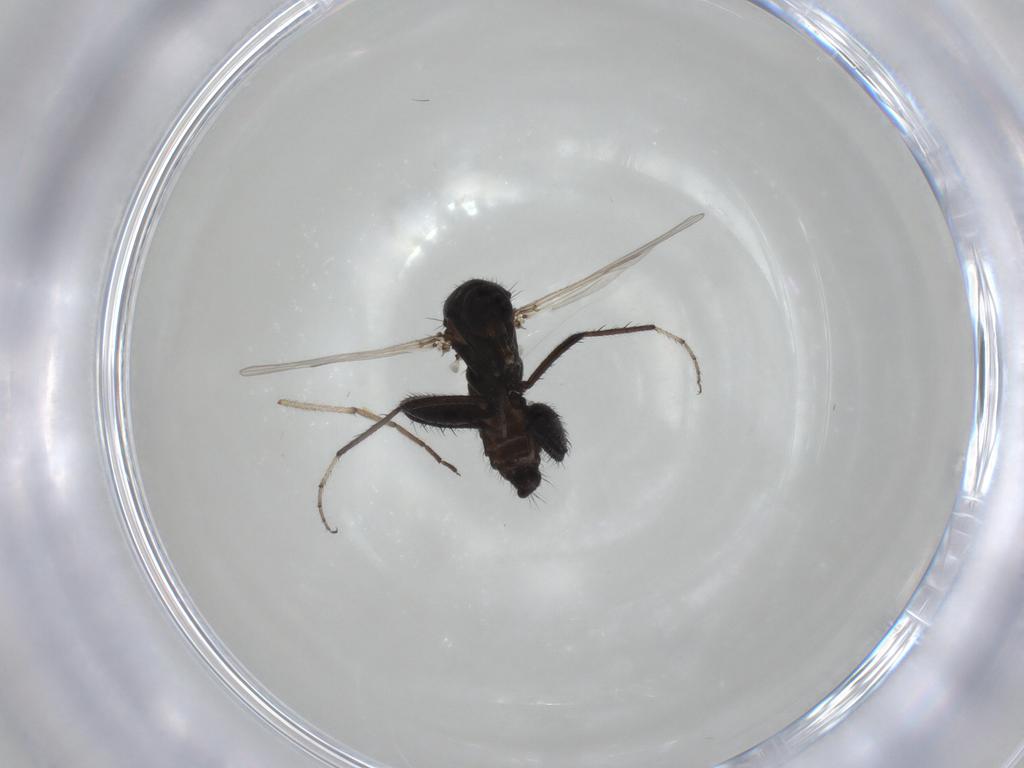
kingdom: Animalia
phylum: Arthropoda
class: Insecta
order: Diptera
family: Chironomidae
